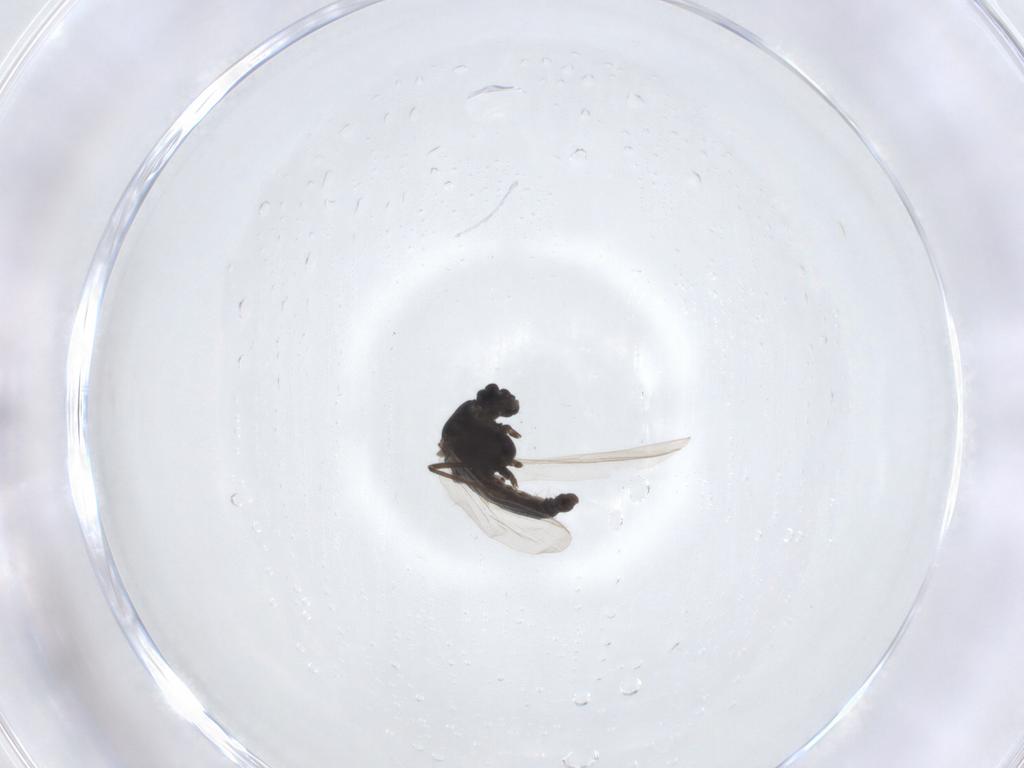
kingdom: Animalia
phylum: Arthropoda
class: Insecta
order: Diptera
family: Chironomidae
